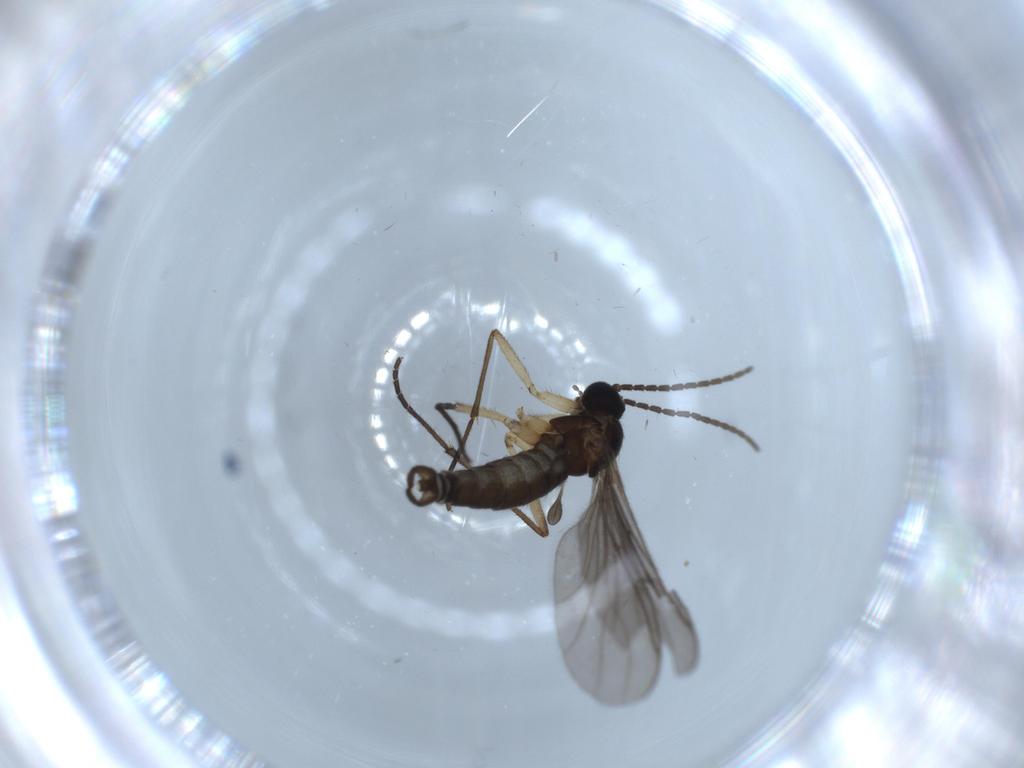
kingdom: Animalia
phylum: Arthropoda
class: Insecta
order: Diptera
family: Sciaridae
